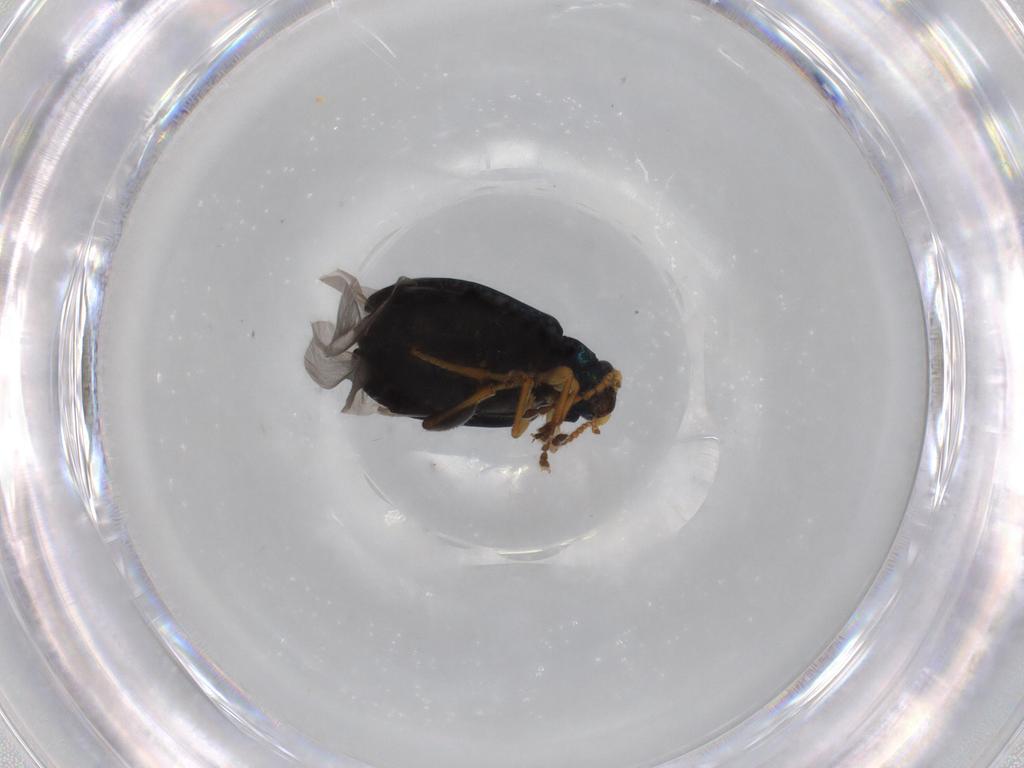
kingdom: Animalia
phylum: Arthropoda
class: Insecta
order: Coleoptera
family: Chrysomelidae
